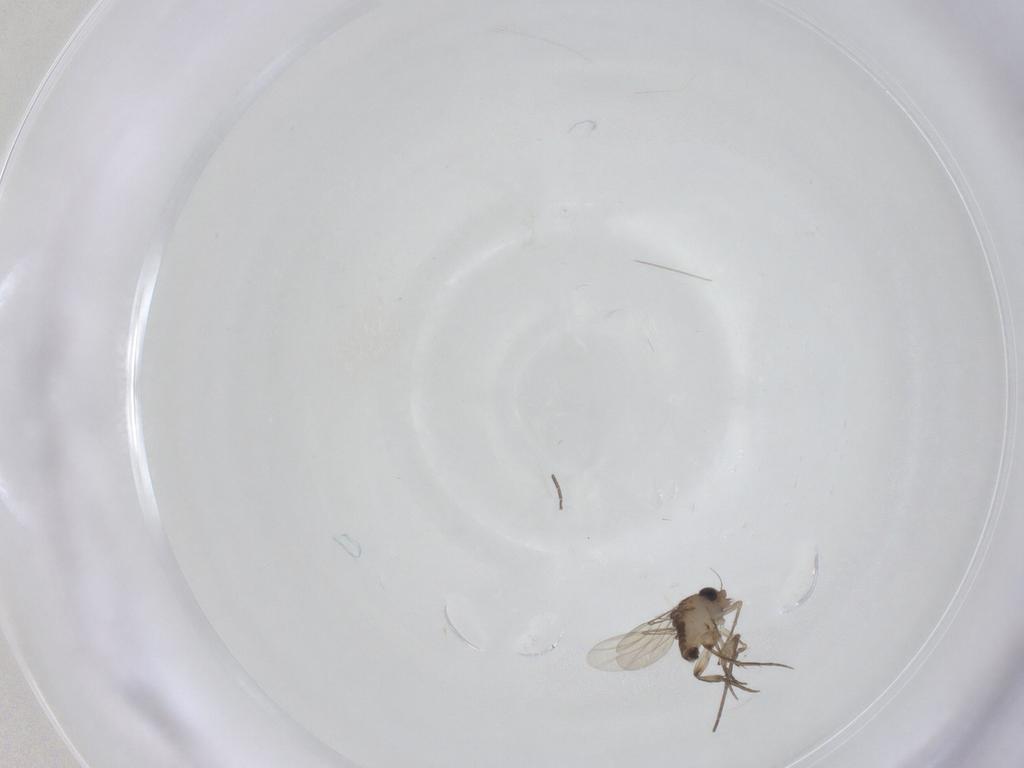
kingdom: Animalia
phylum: Arthropoda
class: Insecta
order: Diptera
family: Phoridae
